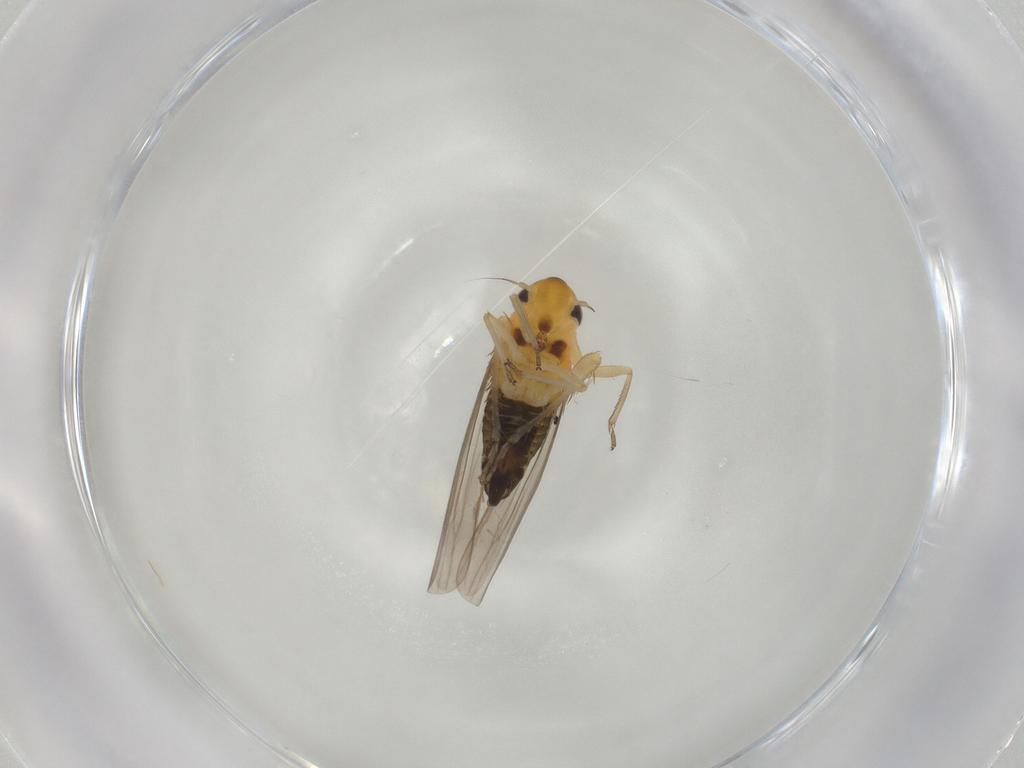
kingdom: Animalia
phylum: Arthropoda
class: Insecta
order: Hemiptera
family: Cicadellidae
